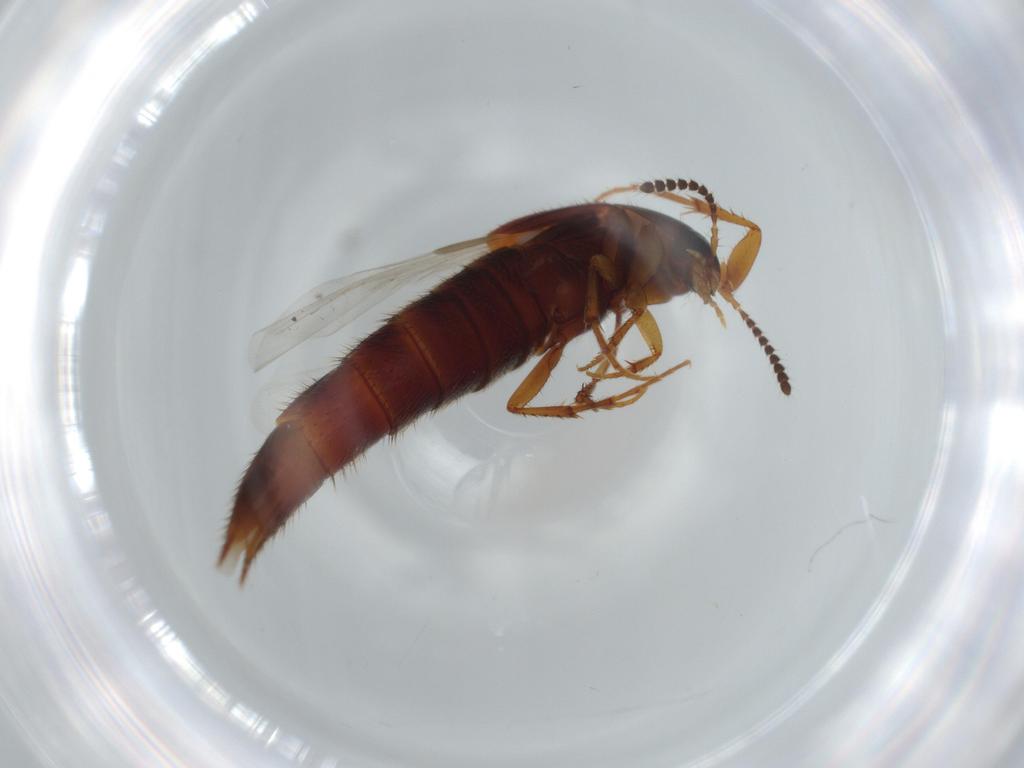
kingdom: Animalia
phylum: Arthropoda
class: Insecta
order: Coleoptera
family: Staphylinidae
